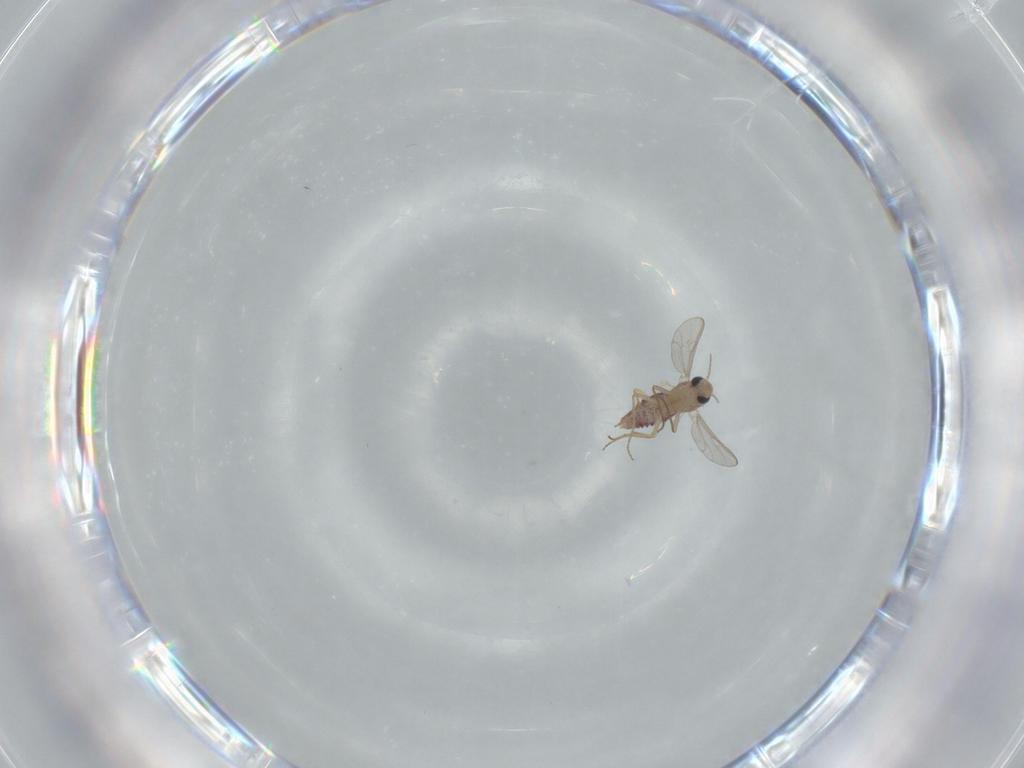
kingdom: Animalia
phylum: Arthropoda
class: Insecta
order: Diptera
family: Chironomidae
